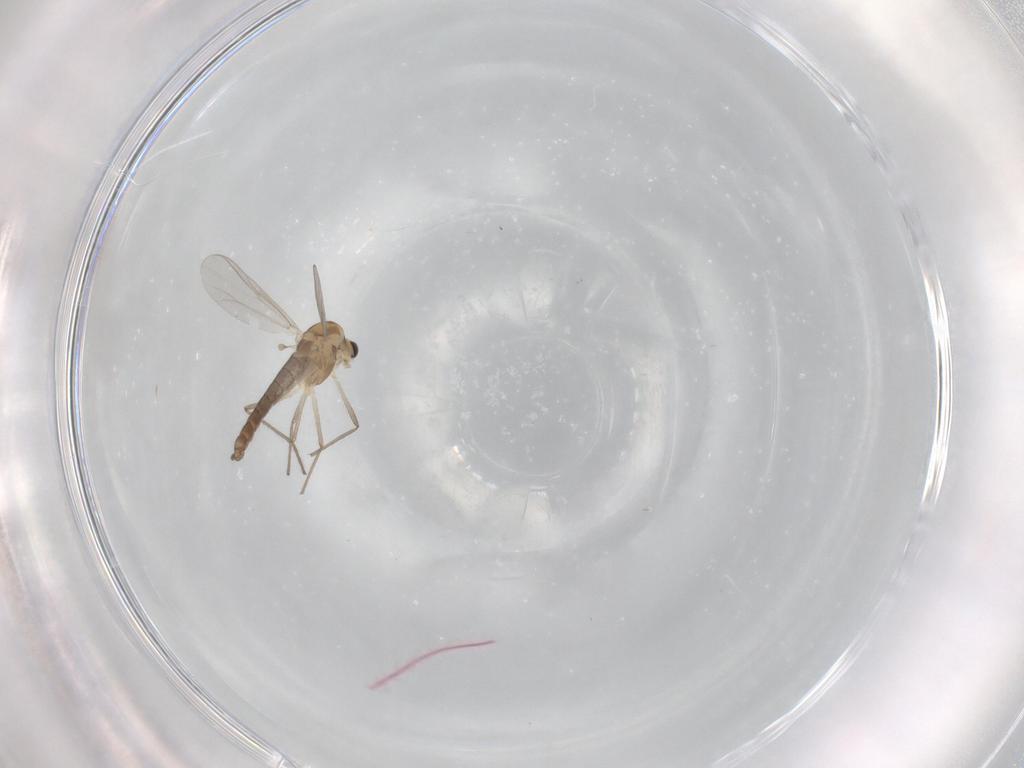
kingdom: Animalia
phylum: Arthropoda
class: Insecta
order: Diptera
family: Chironomidae
